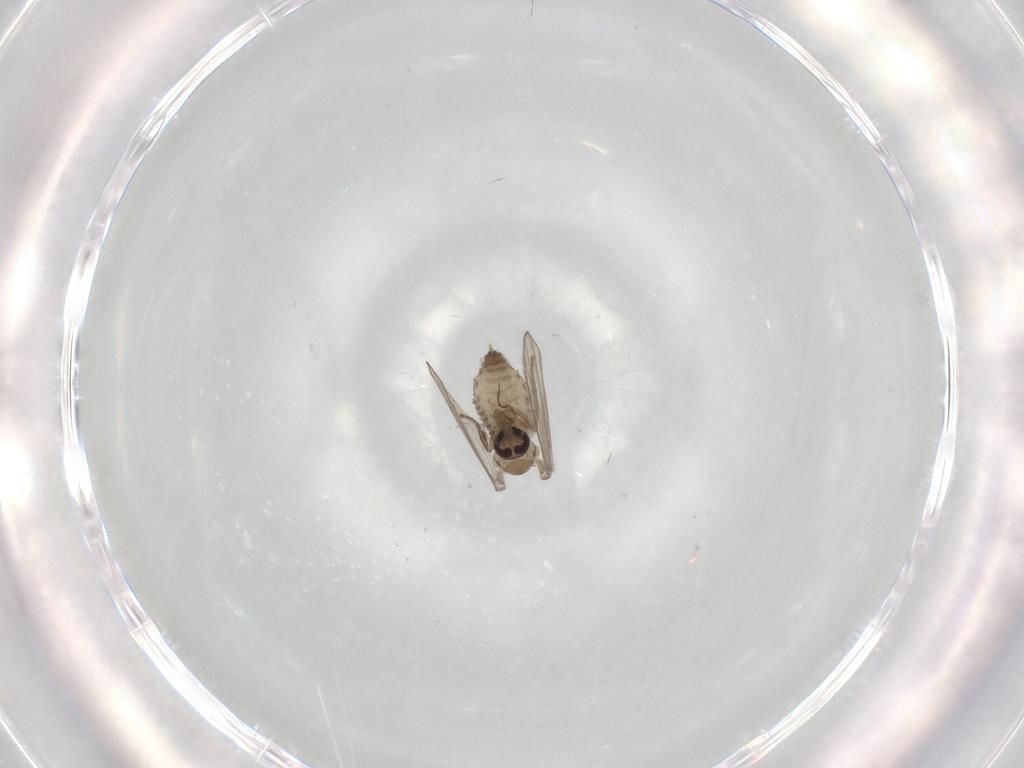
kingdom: Animalia
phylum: Arthropoda
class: Insecta
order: Diptera
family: Psychodidae
